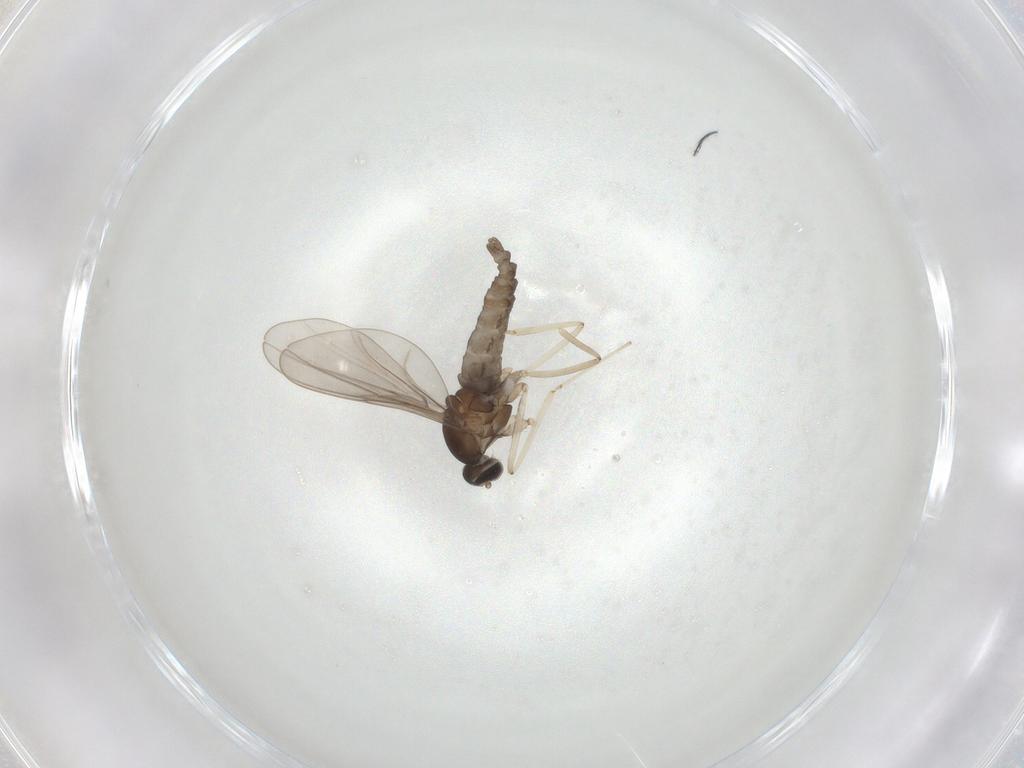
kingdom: Animalia
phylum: Arthropoda
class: Insecta
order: Diptera
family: Cecidomyiidae
